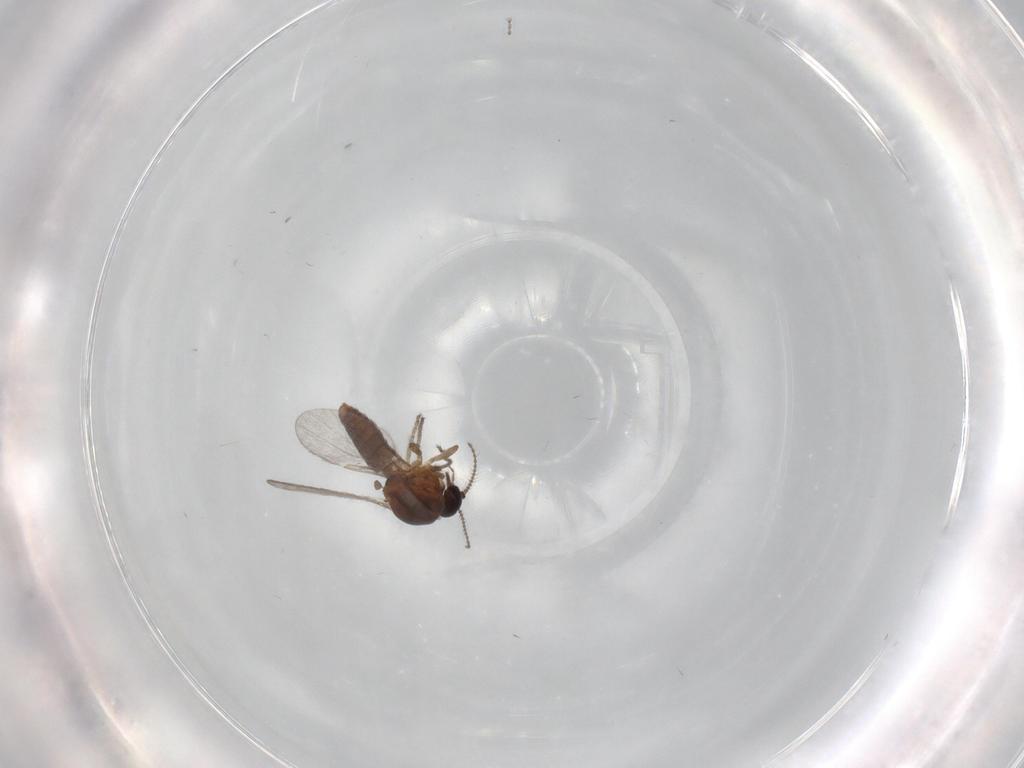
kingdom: Animalia
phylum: Arthropoda
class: Insecta
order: Diptera
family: Ceratopogonidae
